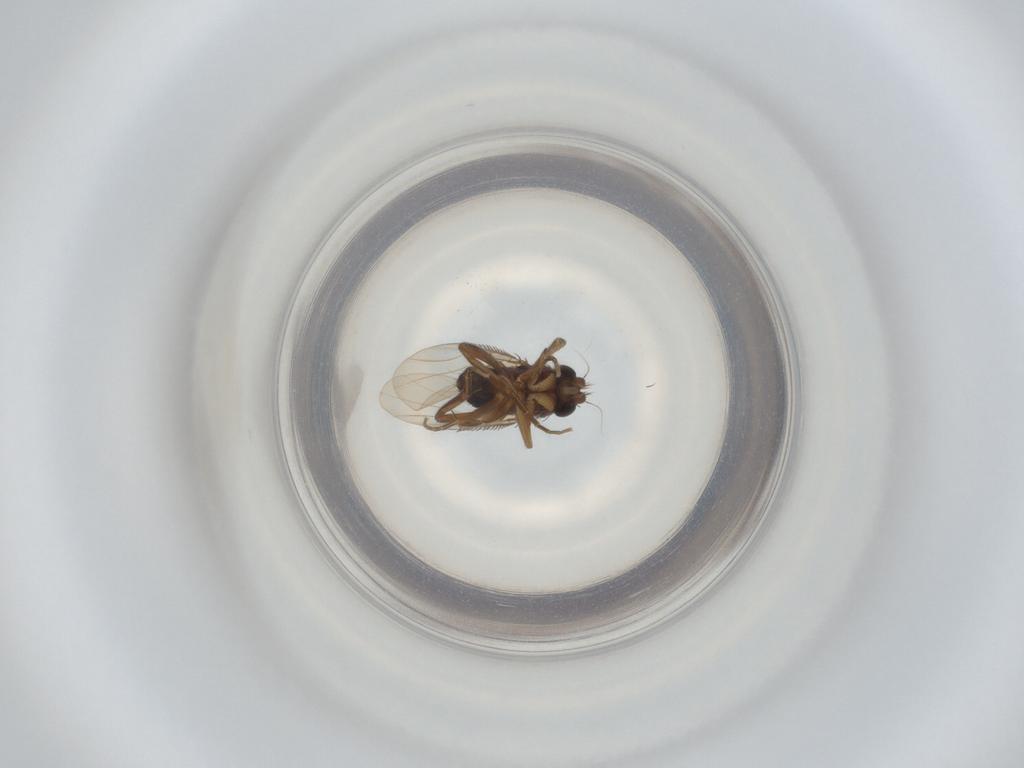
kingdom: Animalia
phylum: Arthropoda
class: Insecta
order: Diptera
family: Phoridae
